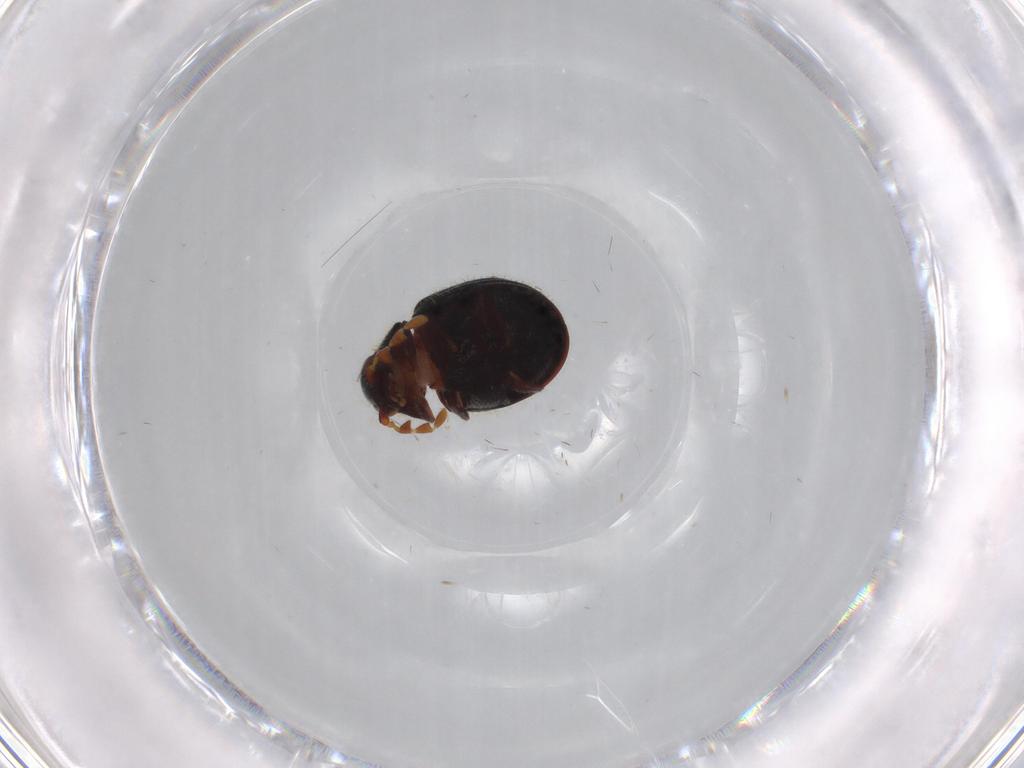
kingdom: Animalia
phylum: Arthropoda
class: Insecta
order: Coleoptera
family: Ptinidae
